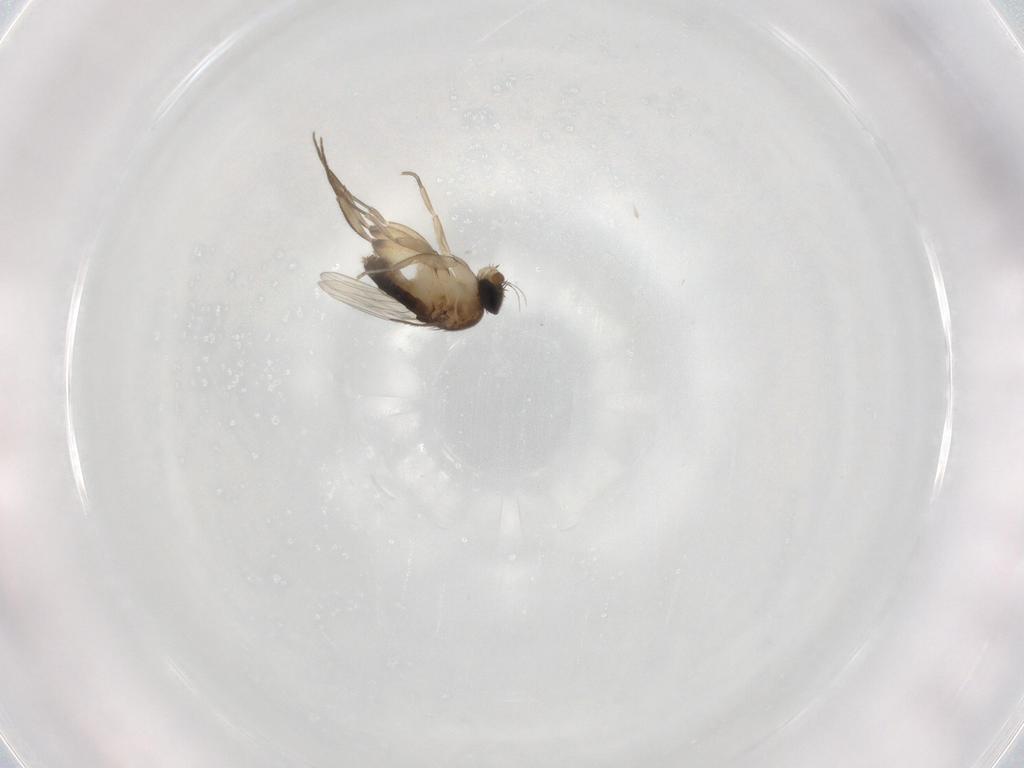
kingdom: Animalia
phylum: Arthropoda
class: Insecta
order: Diptera
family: Phoridae
